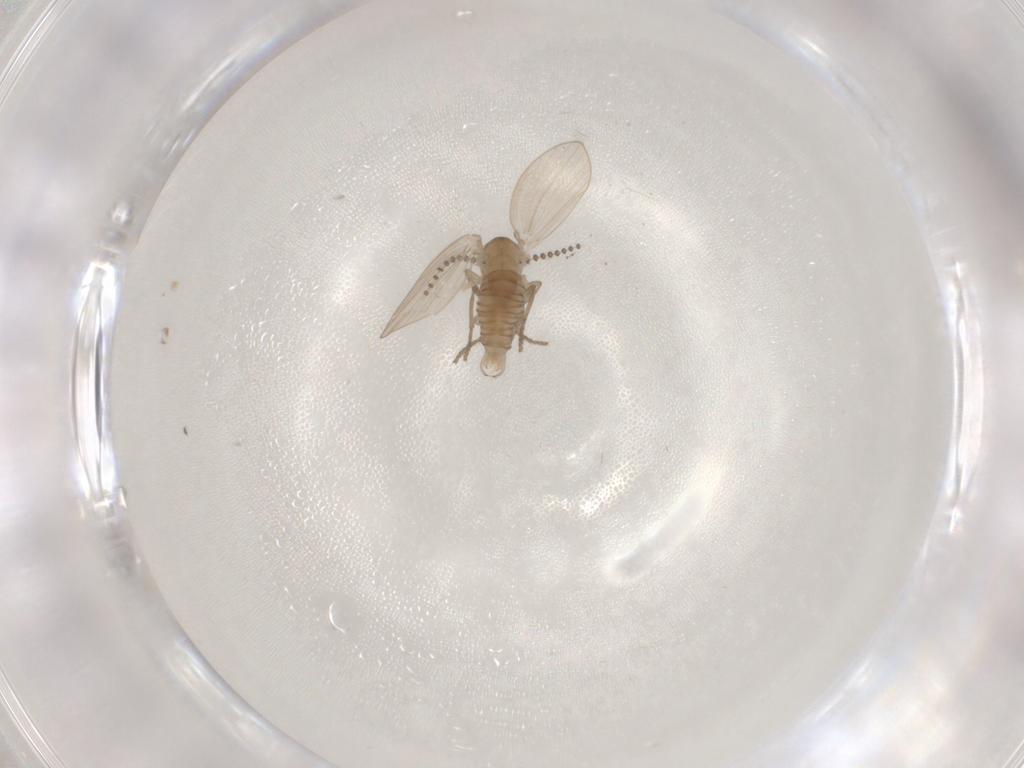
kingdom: Animalia
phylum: Arthropoda
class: Insecta
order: Diptera
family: Psychodidae
